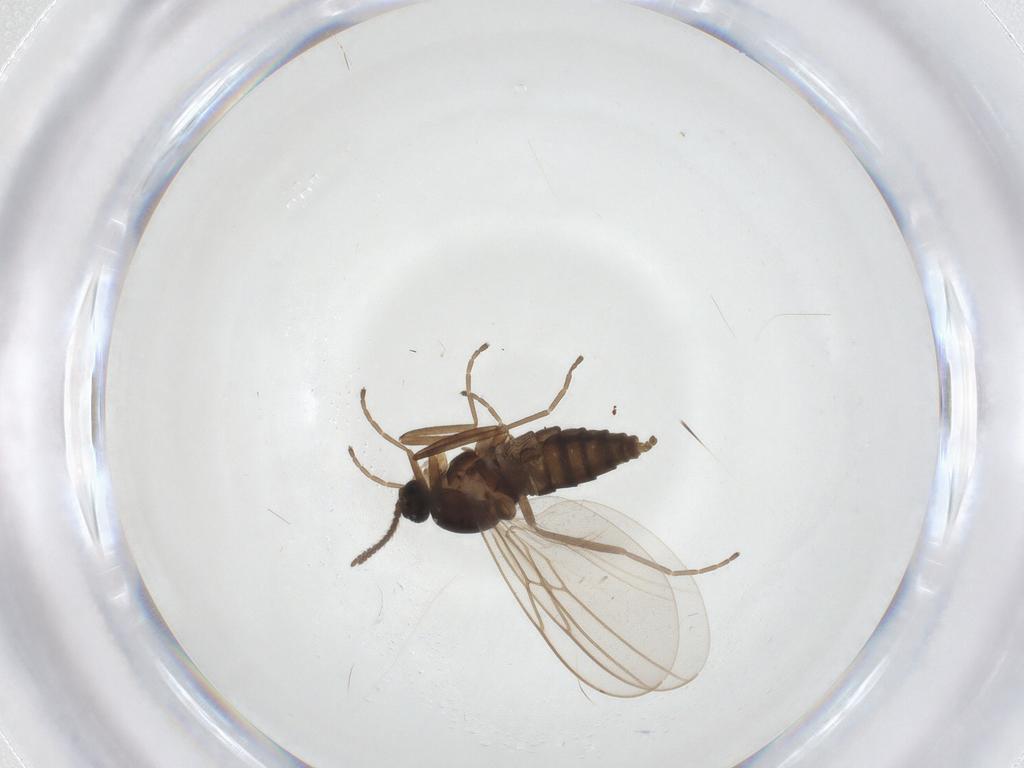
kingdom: Animalia
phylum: Arthropoda
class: Insecta
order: Diptera
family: Cecidomyiidae
